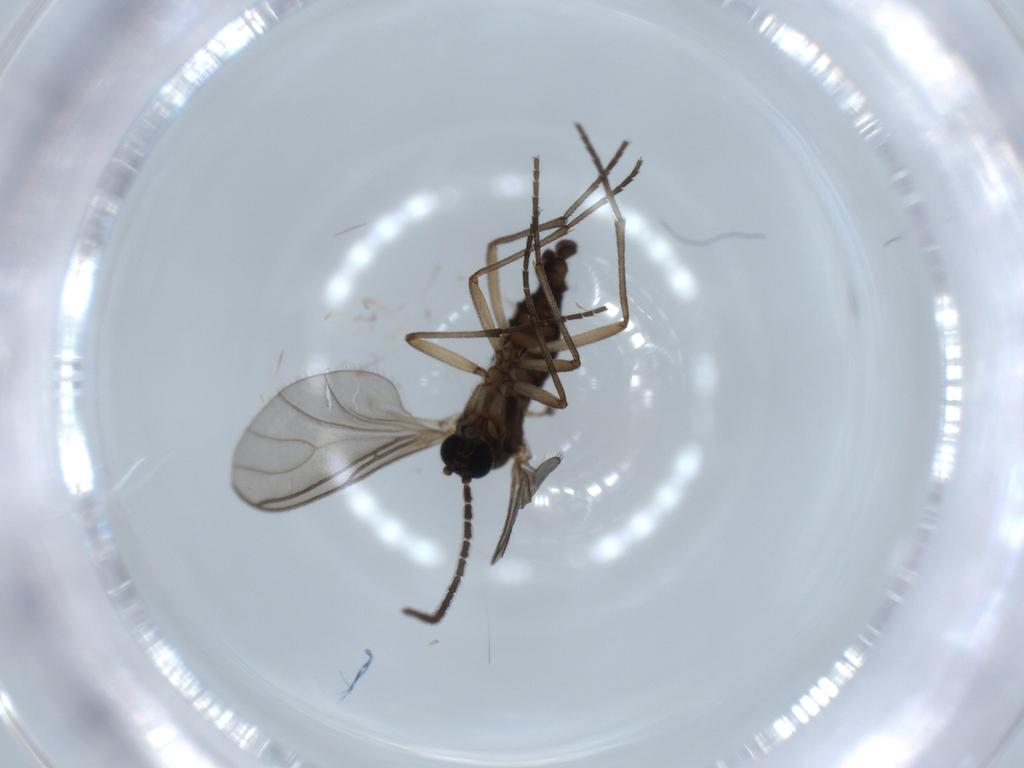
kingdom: Animalia
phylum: Arthropoda
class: Insecta
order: Diptera
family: Sciaridae
